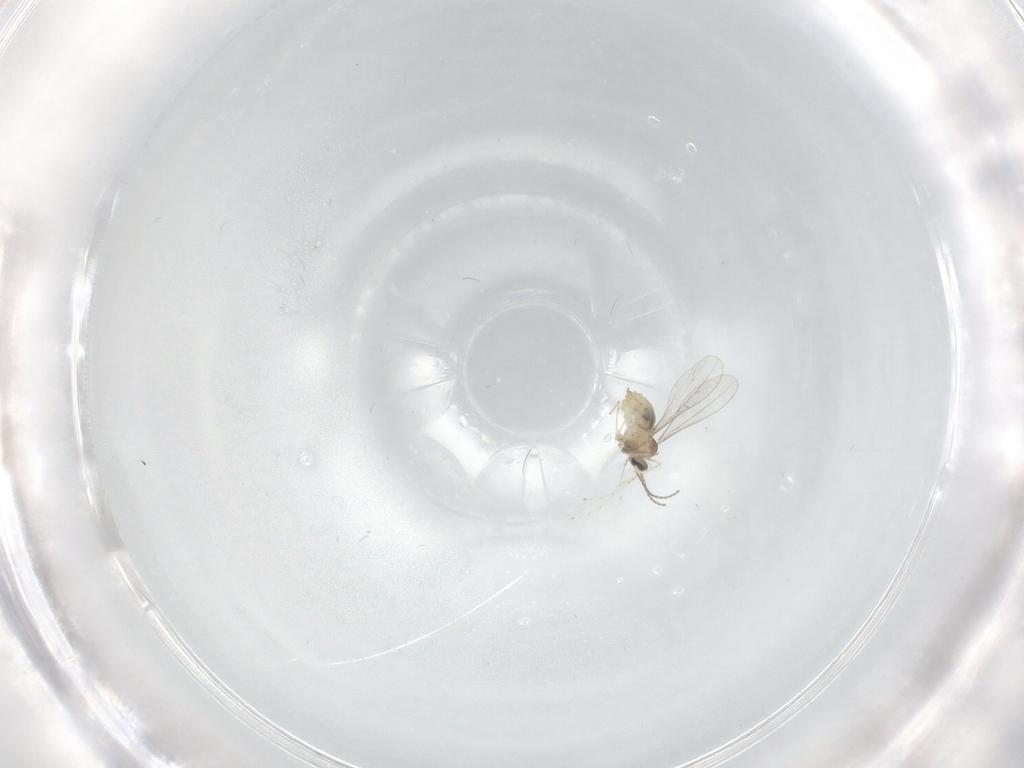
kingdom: Animalia
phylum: Arthropoda
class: Insecta
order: Diptera
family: Cecidomyiidae
